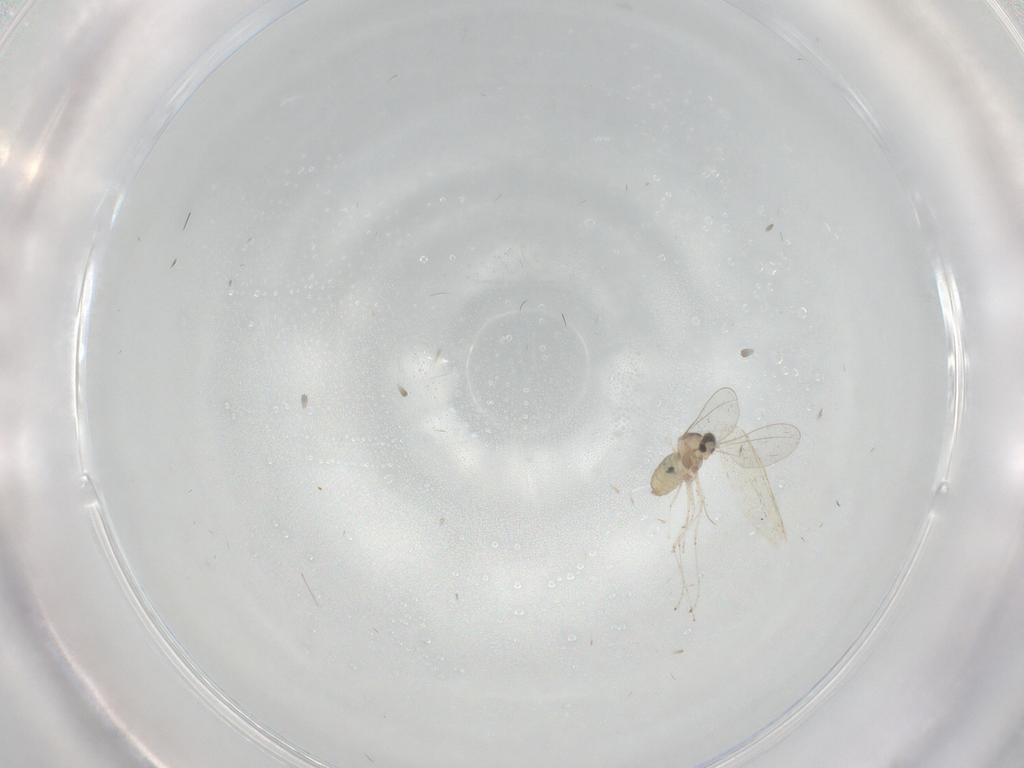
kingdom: Animalia
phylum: Arthropoda
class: Insecta
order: Diptera
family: Cecidomyiidae
